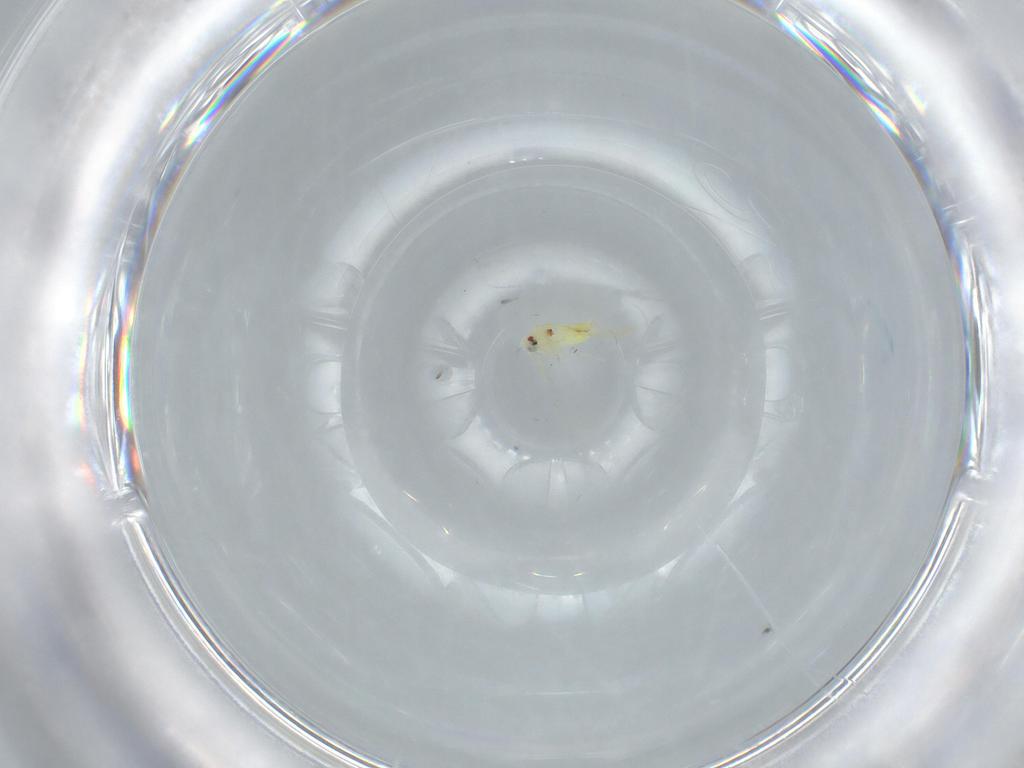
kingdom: Animalia
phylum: Arthropoda
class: Insecta
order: Hemiptera
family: Aleyrodidae
